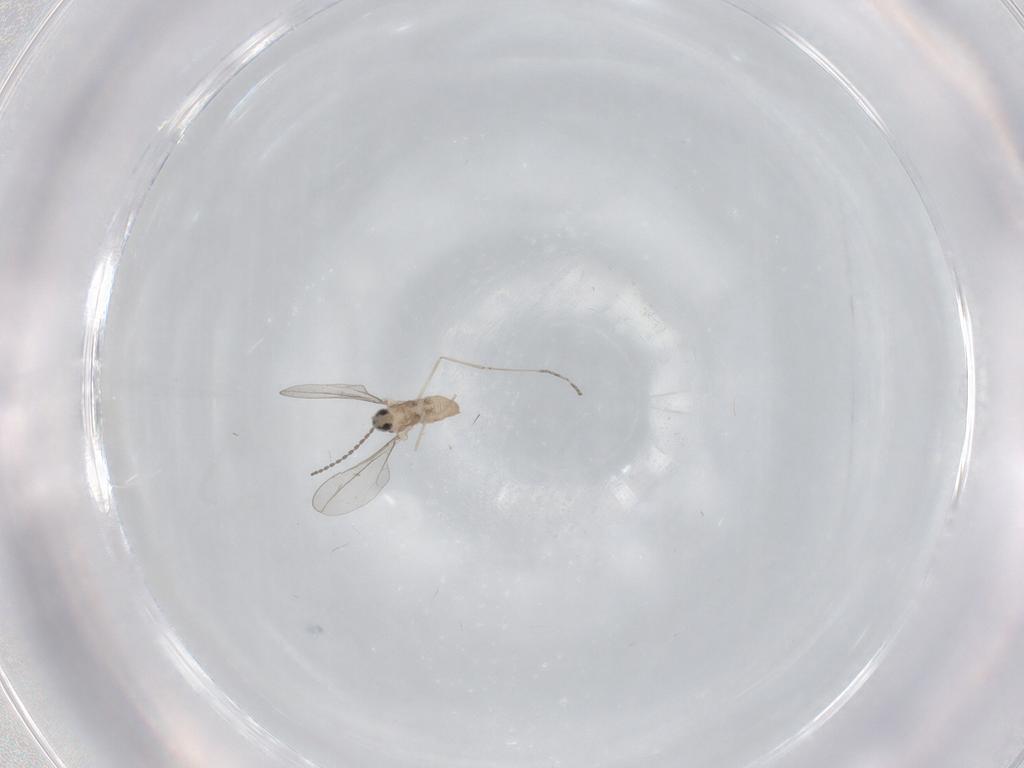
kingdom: Animalia
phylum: Arthropoda
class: Insecta
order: Diptera
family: Cecidomyiidae
